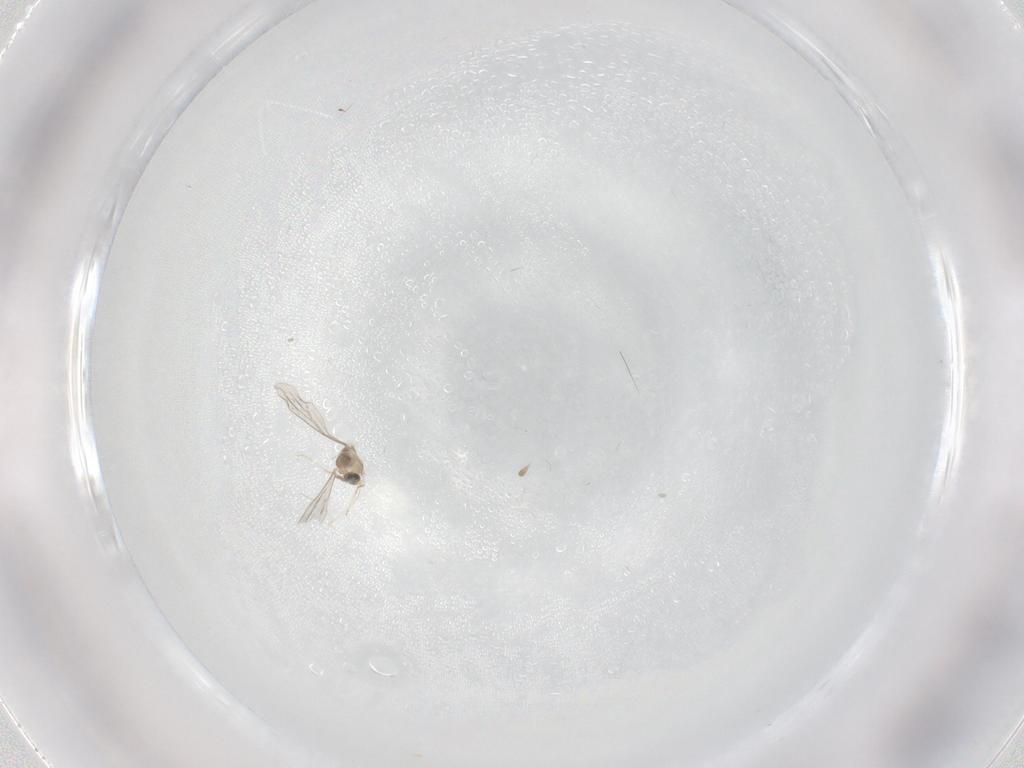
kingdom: Animalia
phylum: Arthropoda
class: Insecta
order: Diptera
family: Cecidomyiidae
